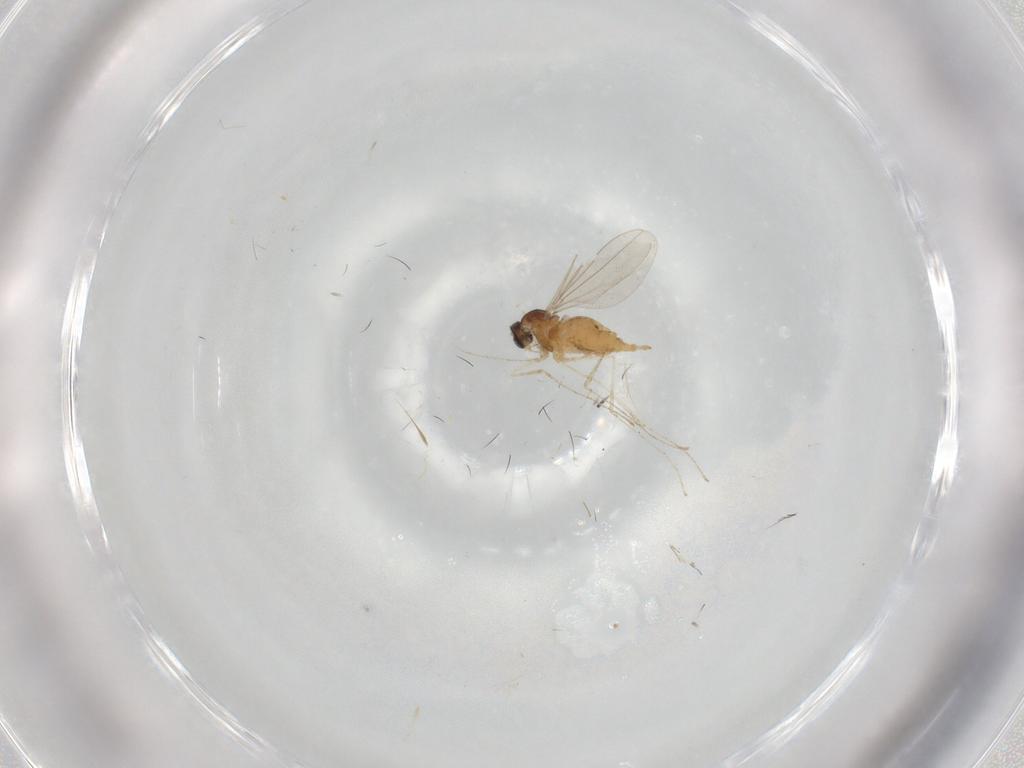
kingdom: Animalia
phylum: Arthropoda
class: Insecta
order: Diptera
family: Cecidomyiidae
